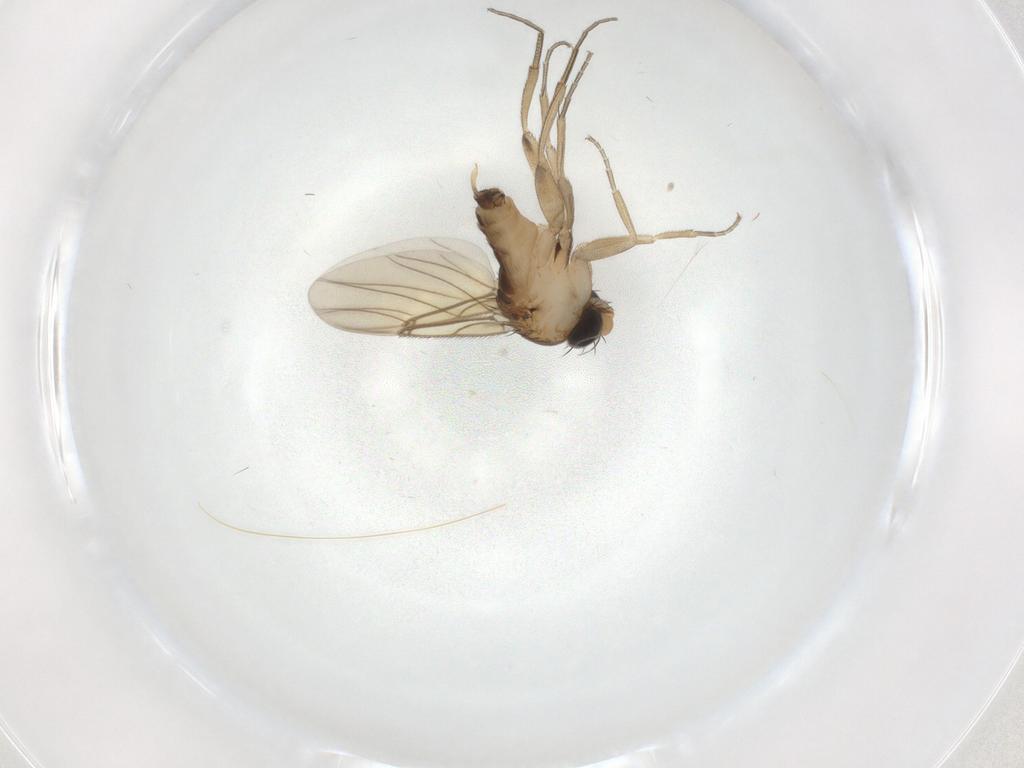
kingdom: Animalia
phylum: Arthropoda
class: Insecta
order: Diptera
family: Phoridae
